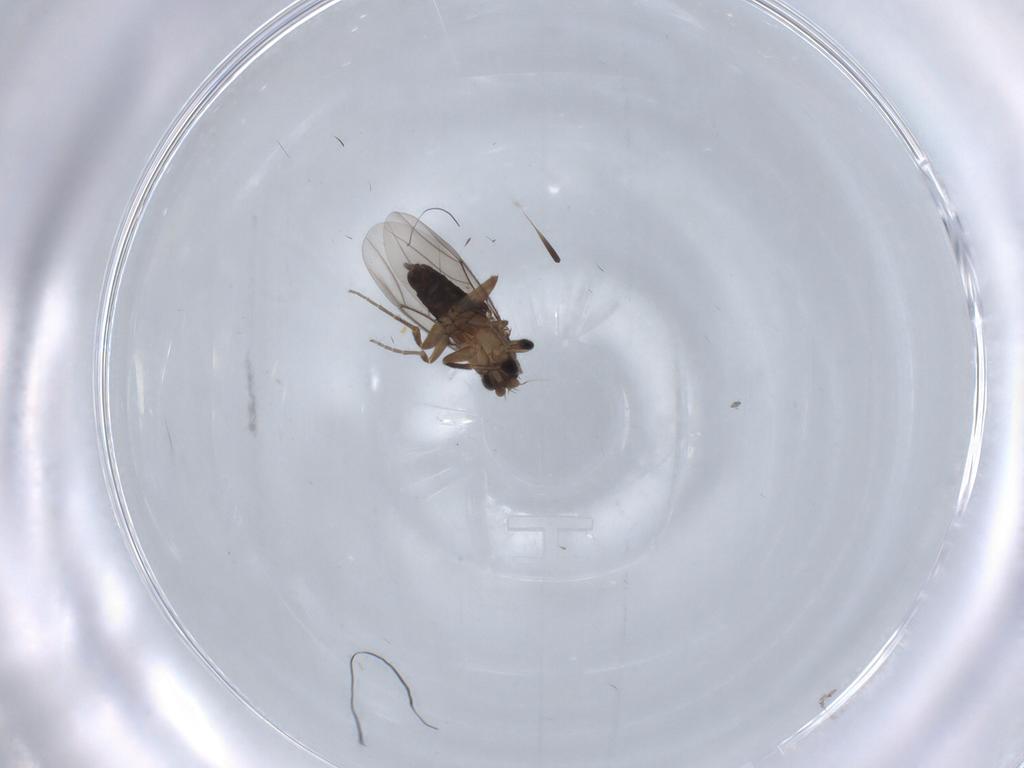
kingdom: Animalia
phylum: Arthropoda
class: Insecta
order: Diptera
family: Phoridae
